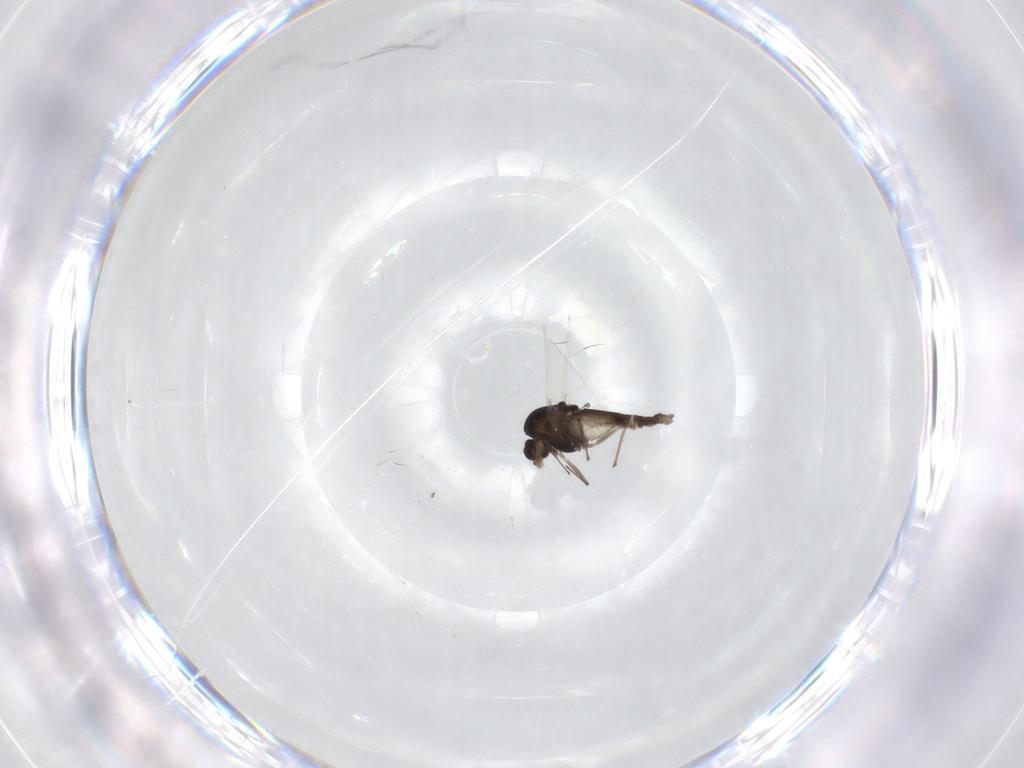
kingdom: Animalia
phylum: Arthropoda
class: Insecta
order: Diptera
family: Chironomidae
